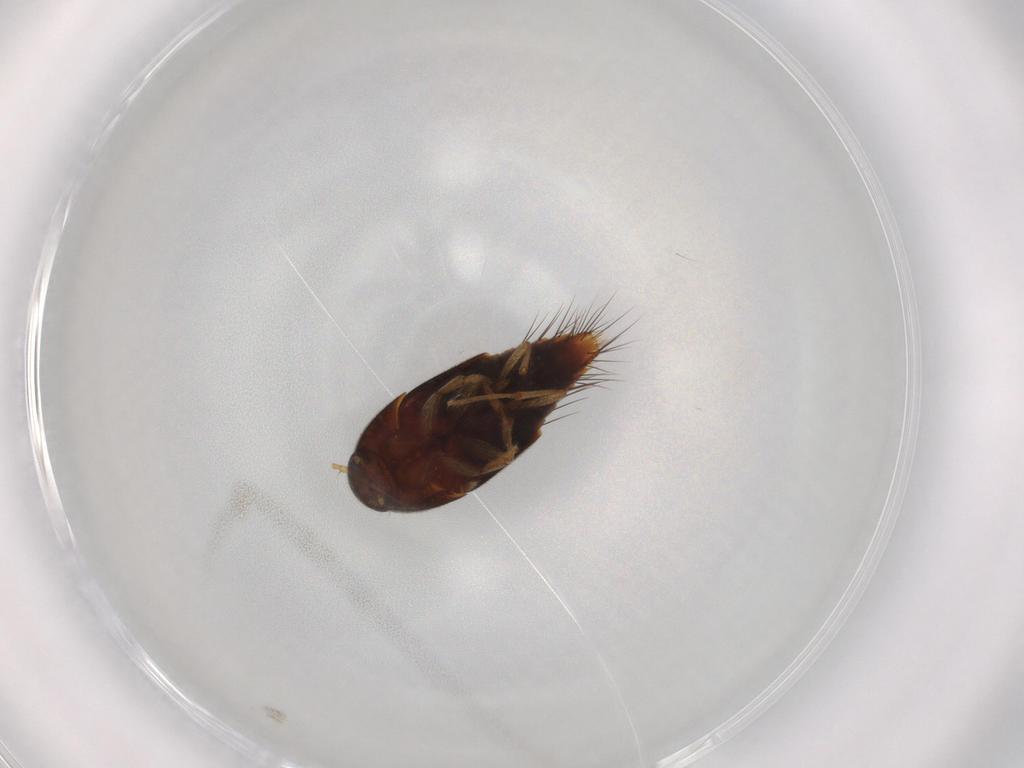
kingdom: Animalia
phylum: Arthropoda
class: Insecta
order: Coleoptera
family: Staphylinidae
